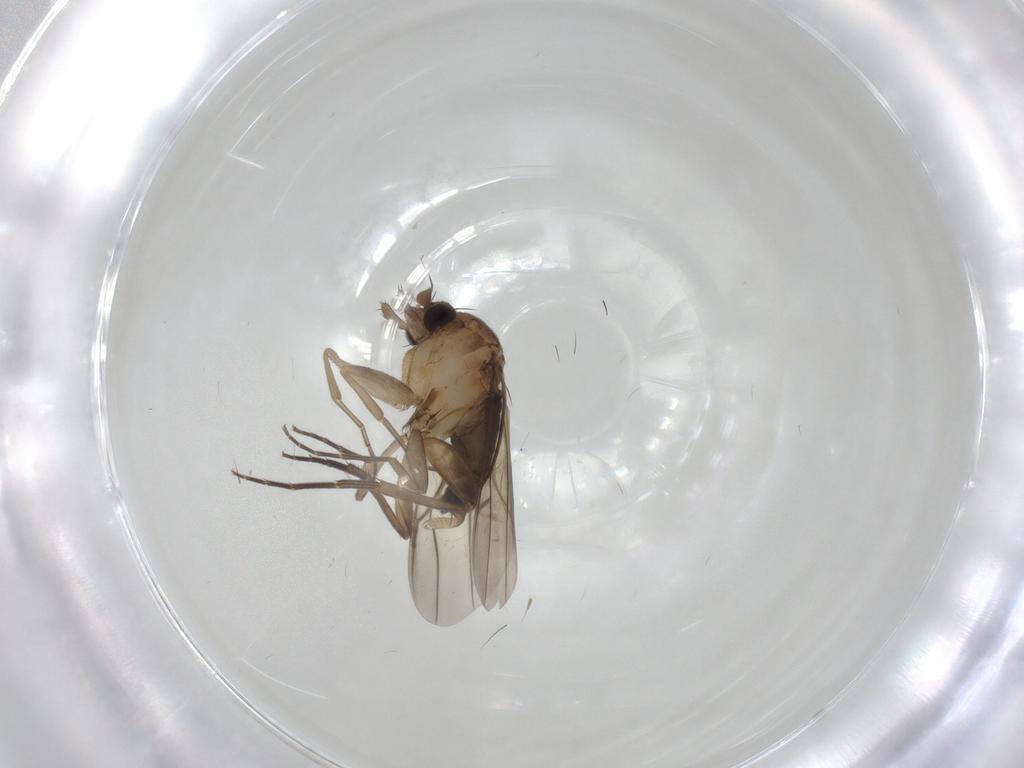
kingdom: Animalia
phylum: Arthropoda
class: Insecta
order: Diptera
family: Phoridae
